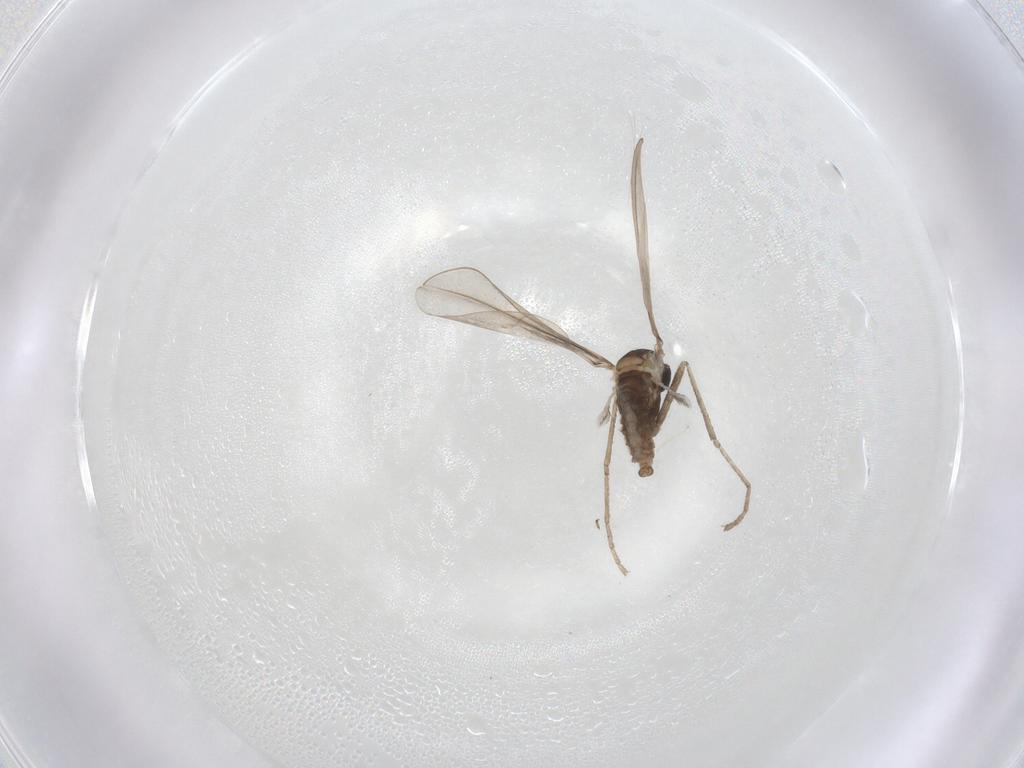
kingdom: Animalia
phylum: Arthropoda
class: Insecta
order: Diptera
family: Cecidomyiidae
